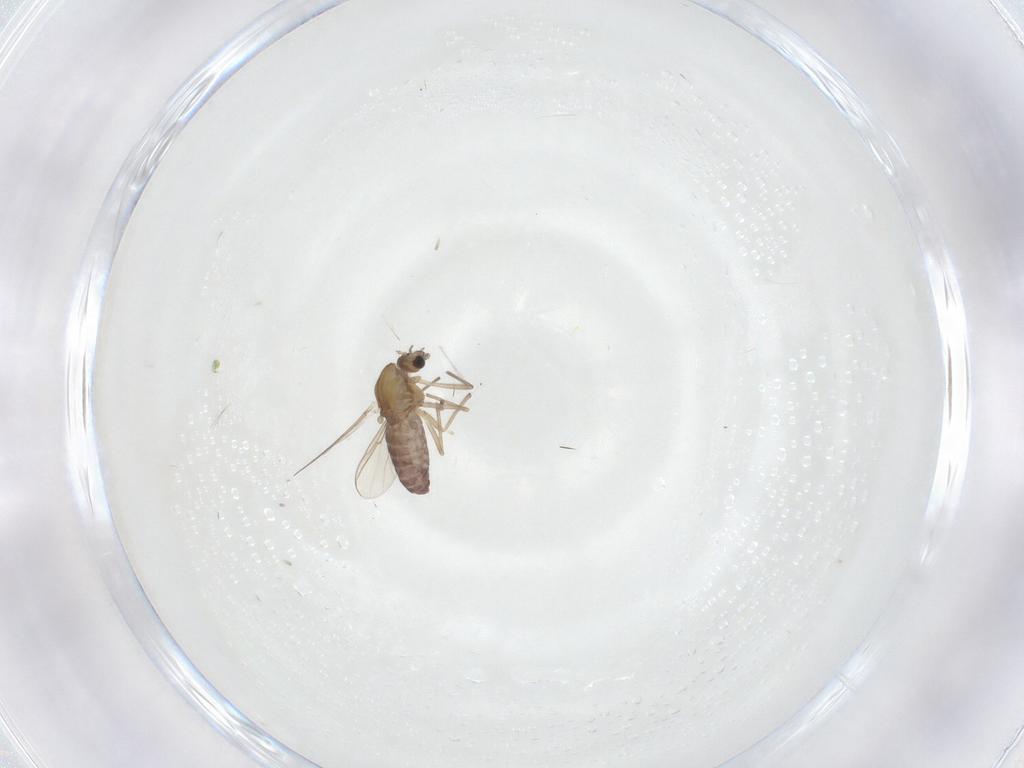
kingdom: Animalia
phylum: Arthropoda
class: Insecta
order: Diptera
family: Chironomidae
